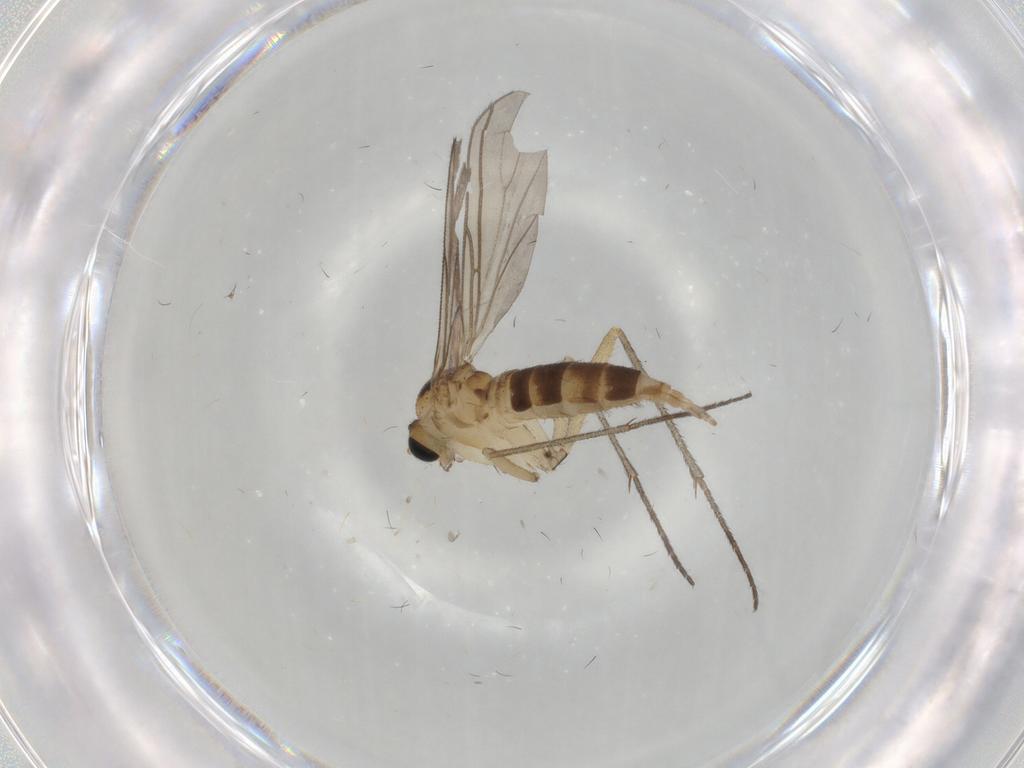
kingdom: Animalia
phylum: Arthropoda
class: Insecta
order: Diptera
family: Sciaridae
